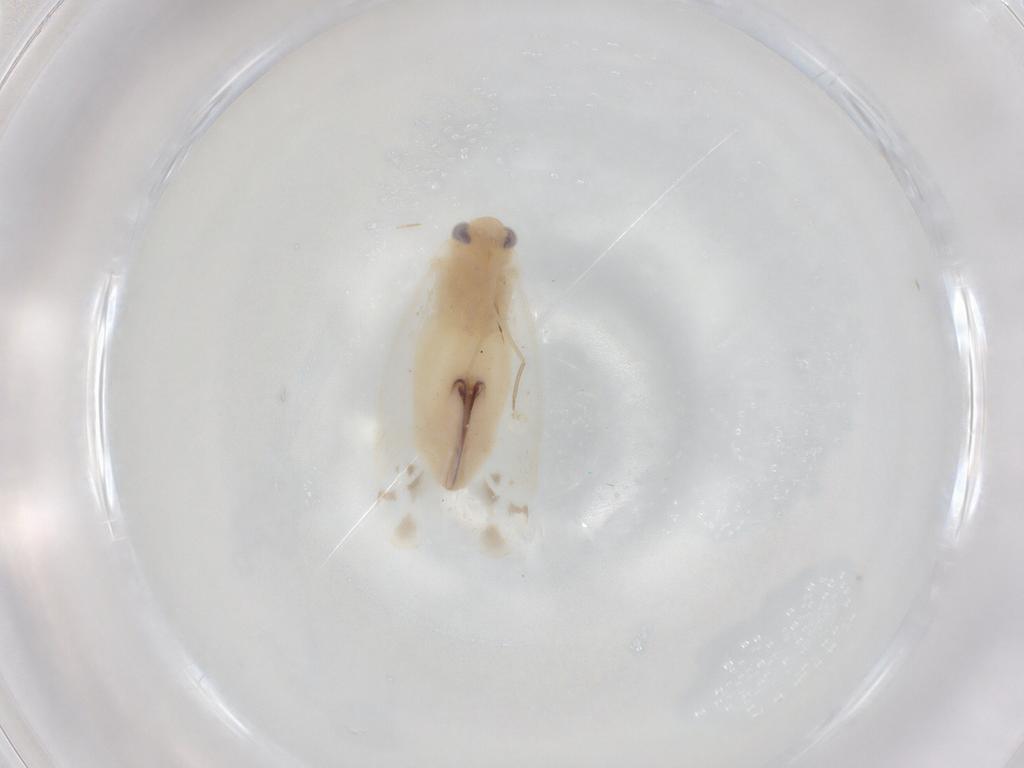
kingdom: Animalia
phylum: Arthropoda
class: Insecta
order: Hemiptera
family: Miridae
